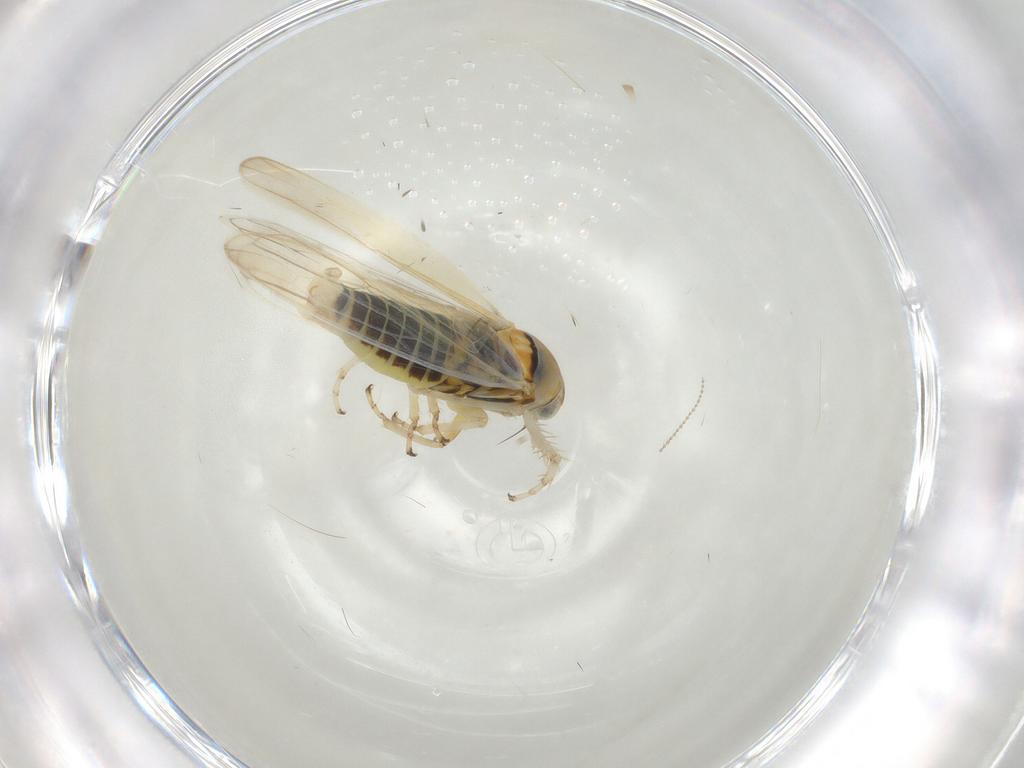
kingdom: Animalia
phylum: Arthropoda
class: Insecta
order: Hemiptera
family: Cicadellidae
